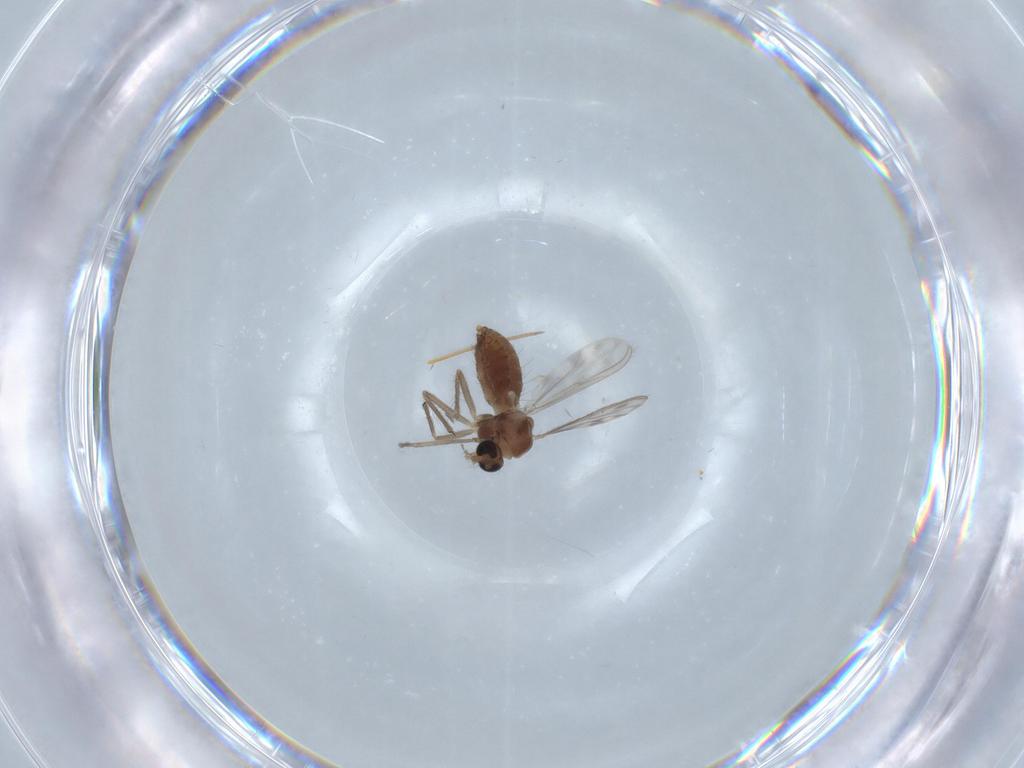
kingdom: Animalia
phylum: Arthropoda
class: Insecta
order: Diptera
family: Chironomidae
